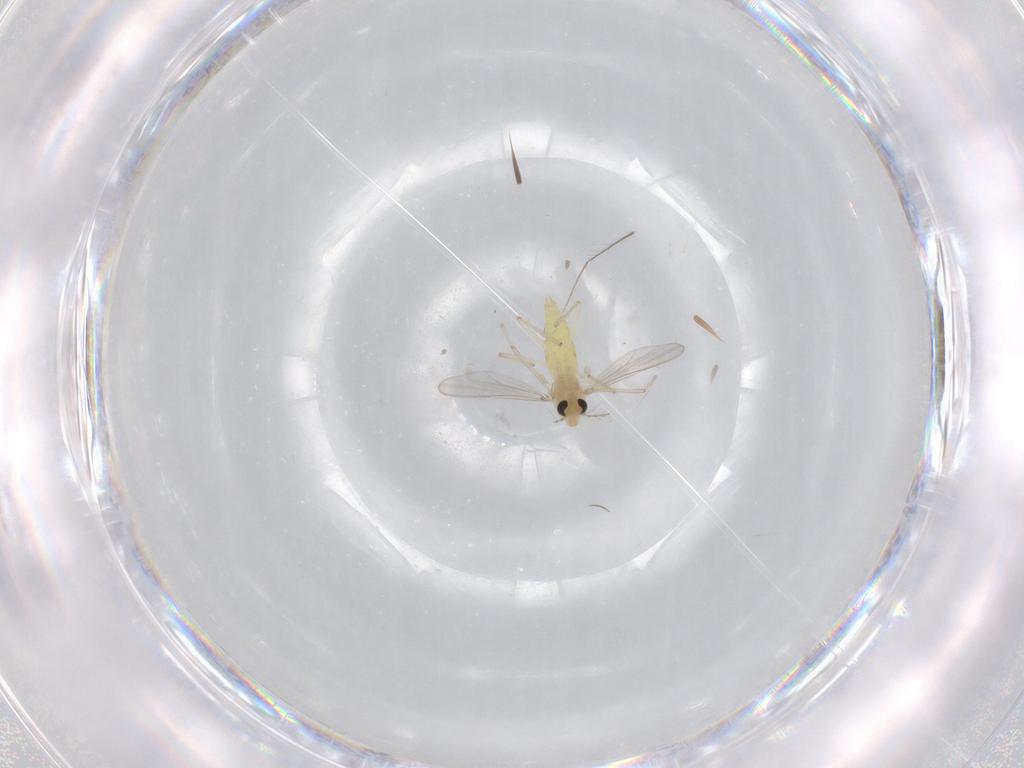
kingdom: Animalia
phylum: Arthropoda
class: Insecta
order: Diptera
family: Chironomidae
